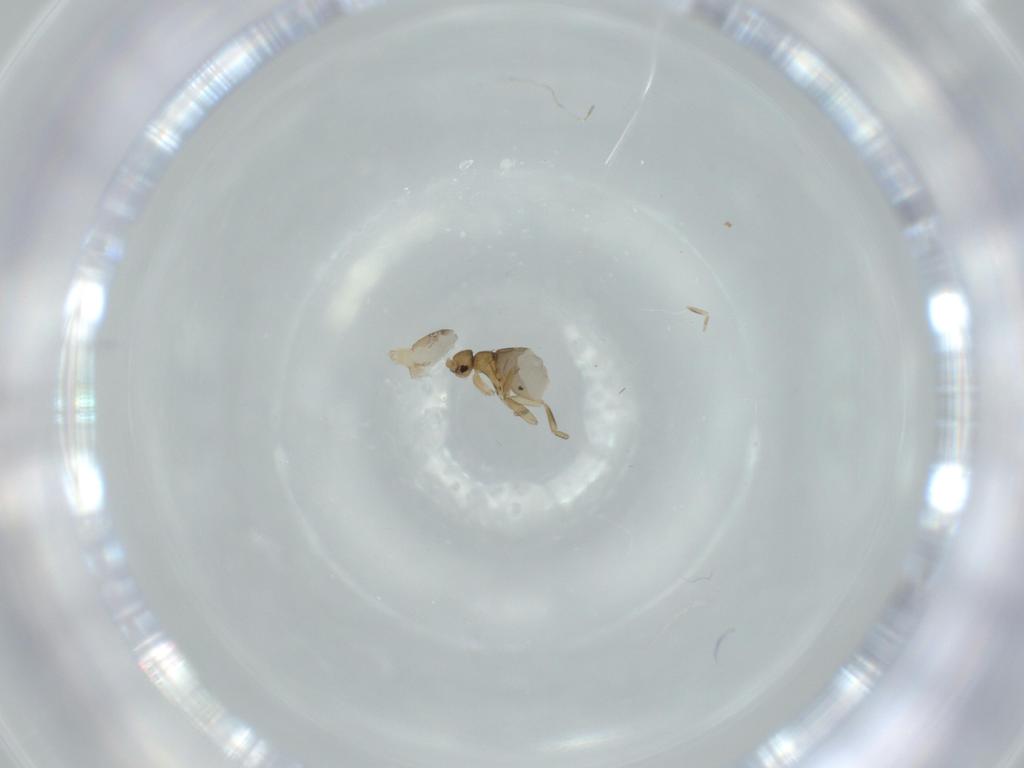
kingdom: Animalia
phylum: Arthropoda
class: Insecta
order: Diptera
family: Phoridae
